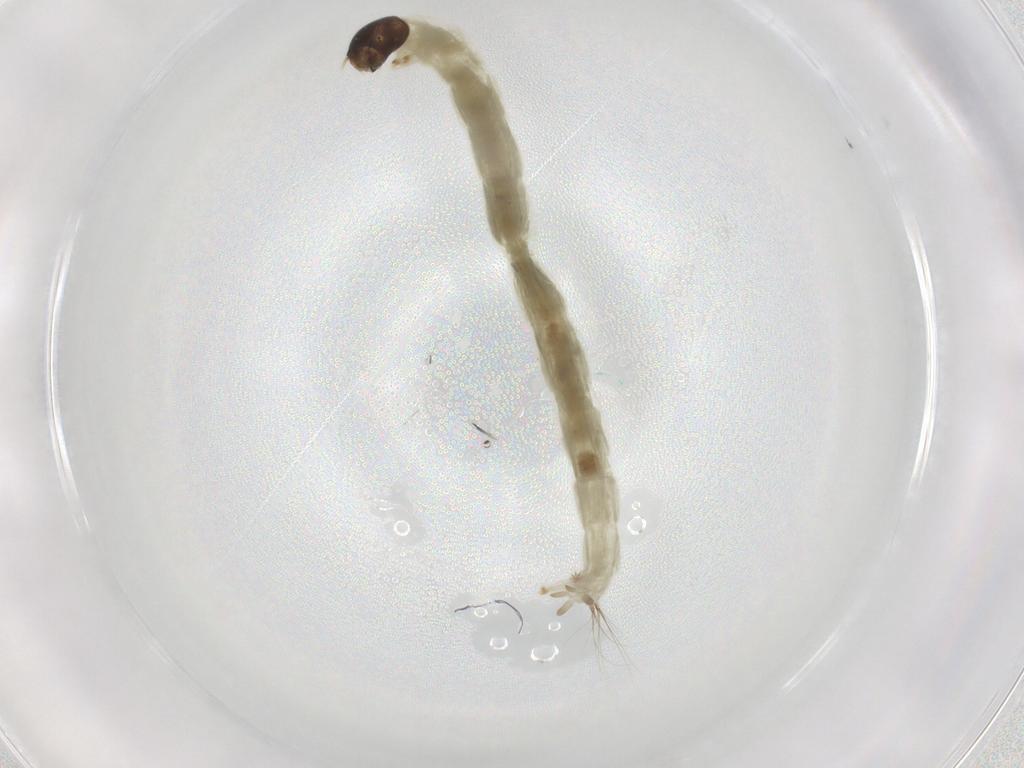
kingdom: Animalia
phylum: Arthropoda
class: Insecta
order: Diptera
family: Chironomidae
